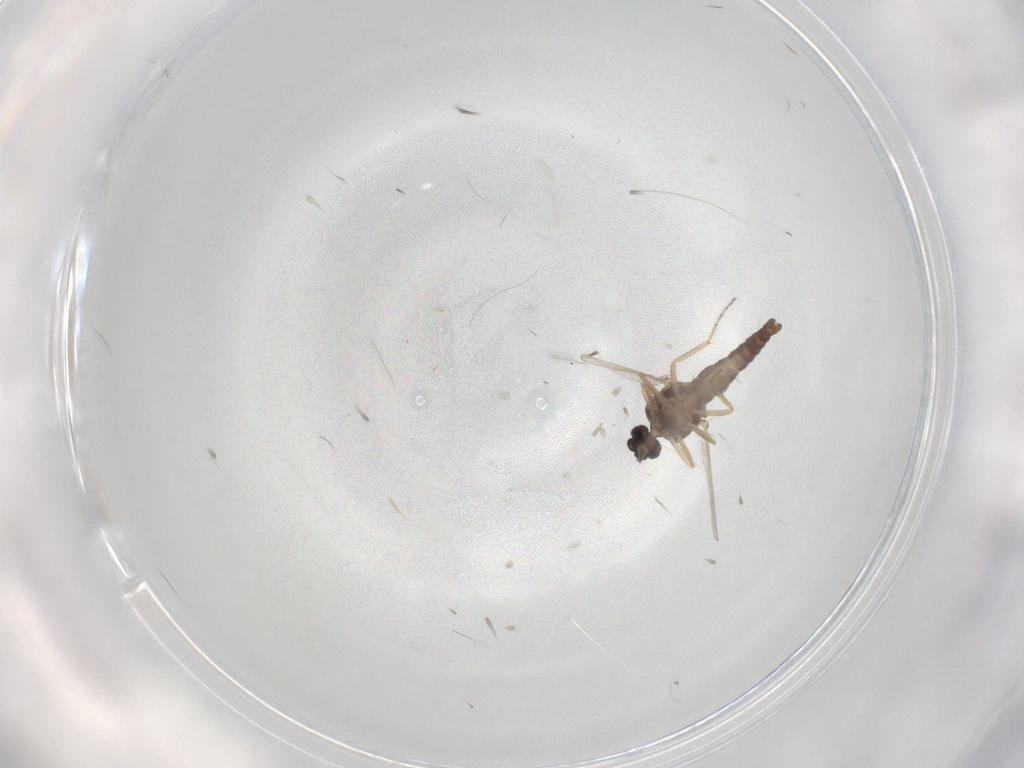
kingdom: Animalia
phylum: Arthropoda
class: Insecta
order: Diptera
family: Ceratopogonidae
